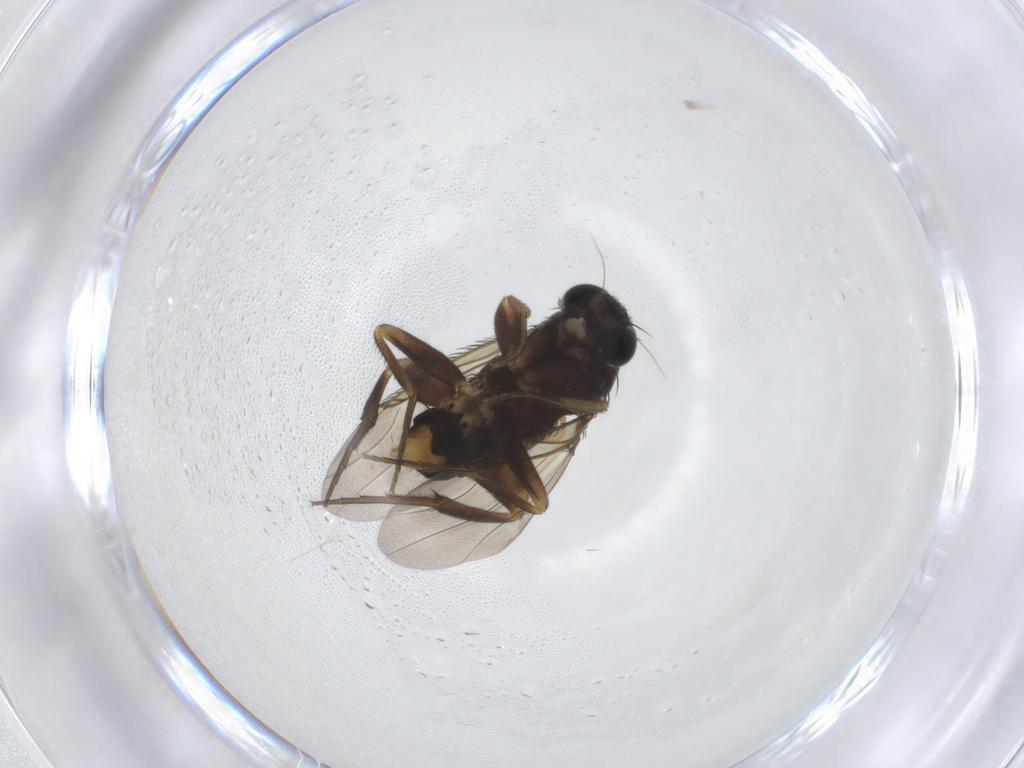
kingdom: Animalia
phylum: Arthropoda
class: Insecta
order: Diptera
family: Phoridae
